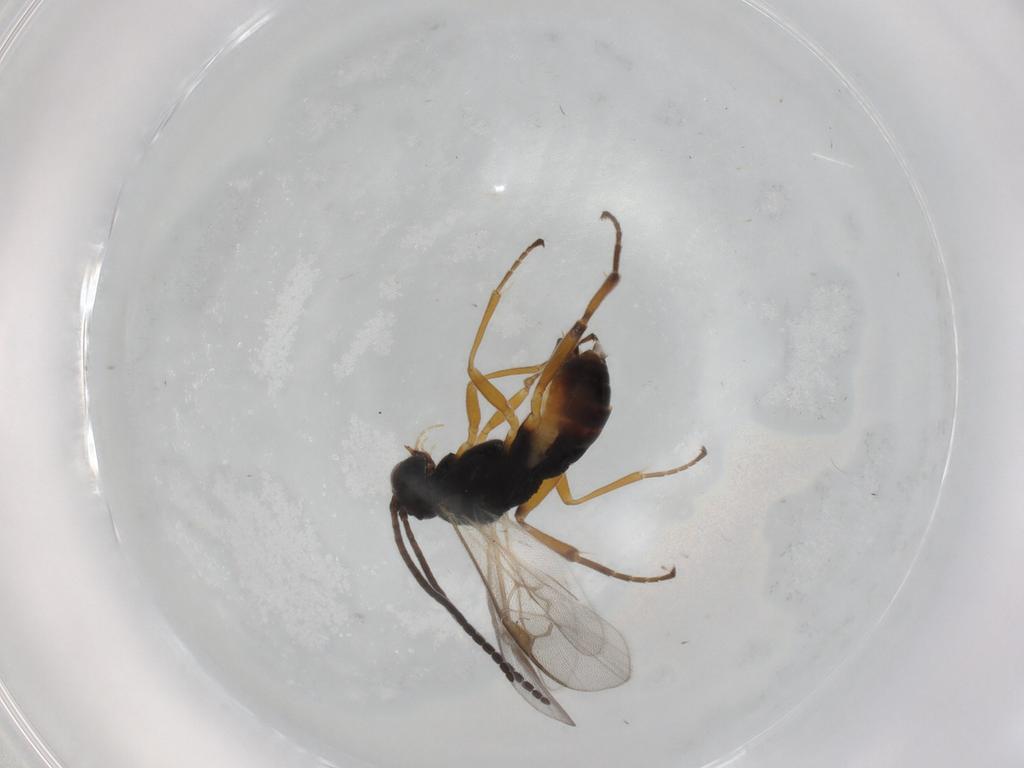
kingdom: Animalia
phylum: Arthropoda
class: Insecta
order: Hymenoptera
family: Braconidae
